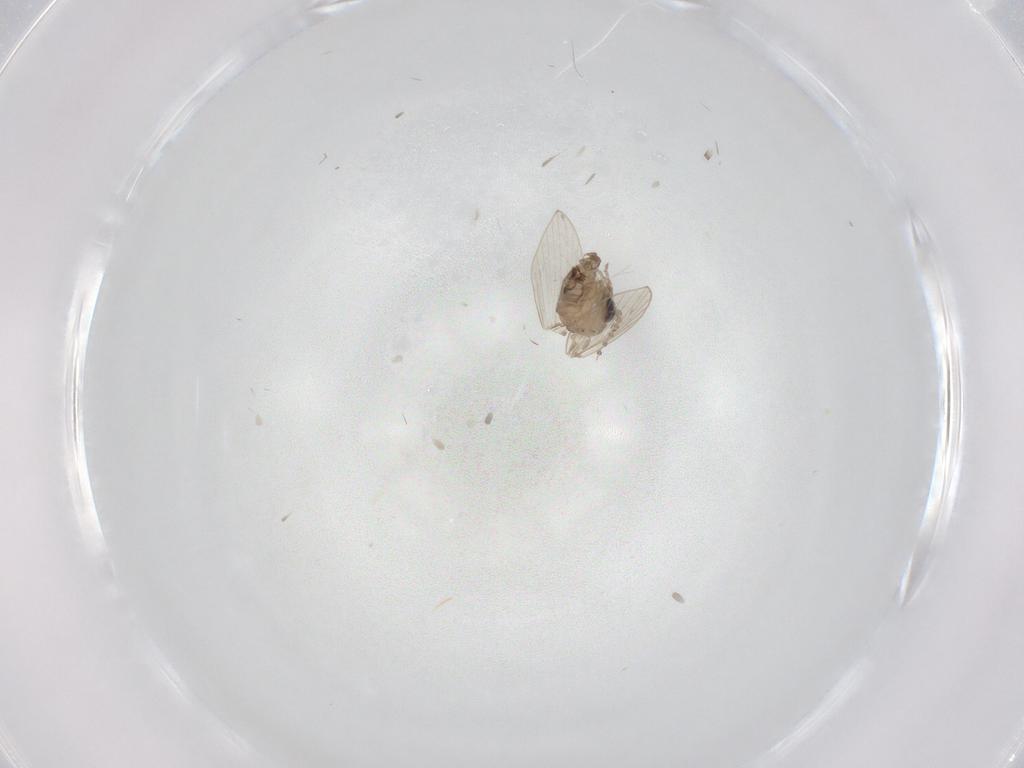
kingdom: Animalia
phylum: Arthropoda
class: Insecta
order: Diptera
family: Psychodidae
